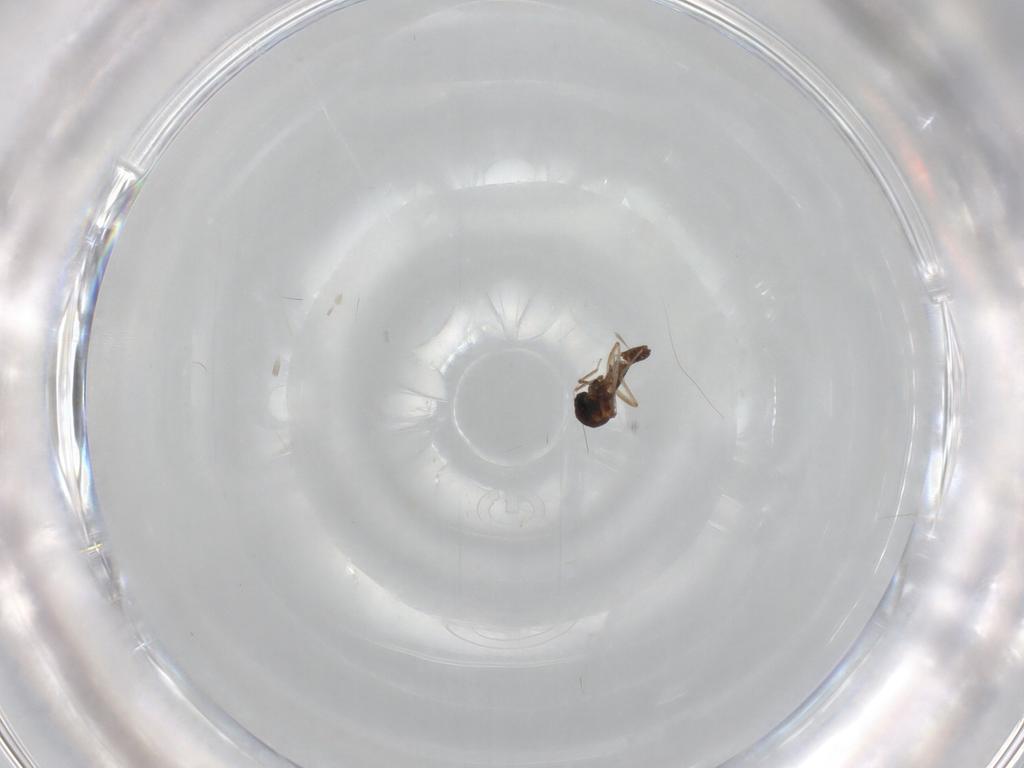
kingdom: Animalia
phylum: Arthropoda
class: Insecta
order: Diptera
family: Ceratopogonidae
